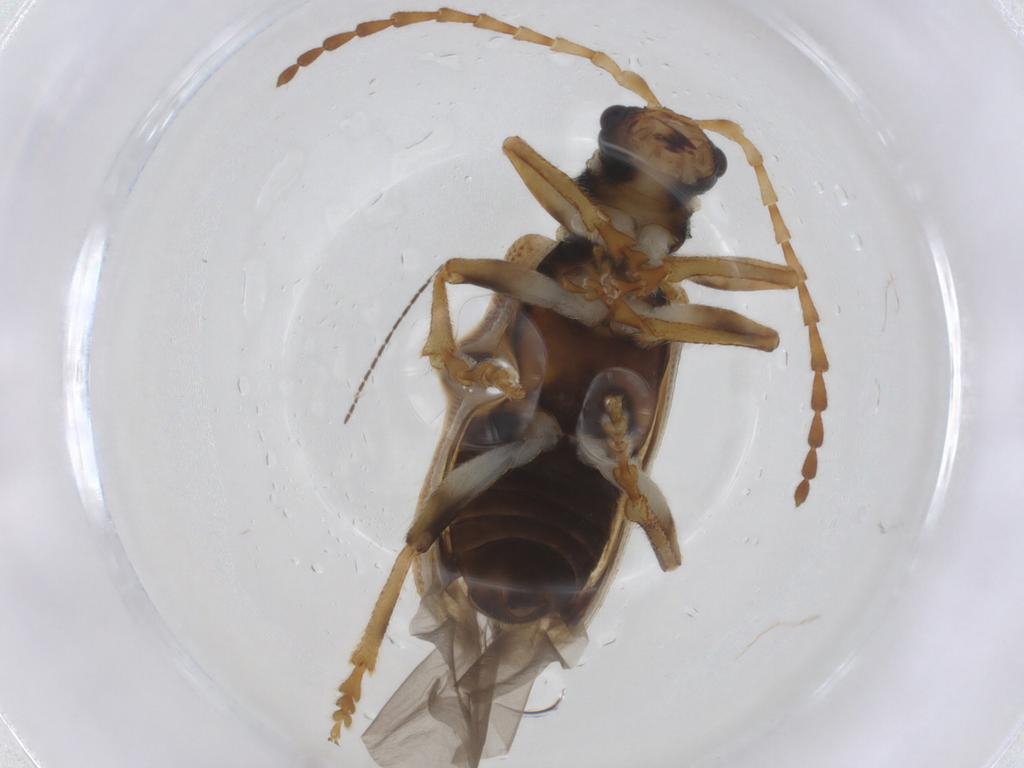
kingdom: Animalia
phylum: Arthropoda
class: Insecta
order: Coleoptera
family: Chrysomelidae
